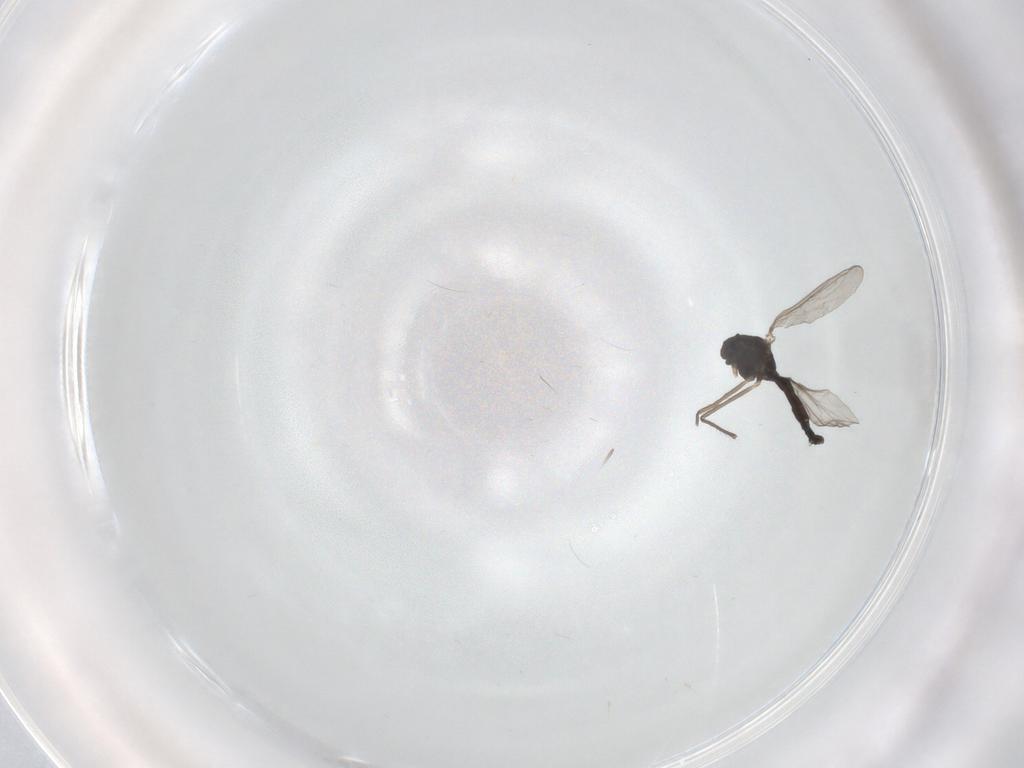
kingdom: Animalia
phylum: Arthropoda
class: Insecta
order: Diptera
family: Chironomidae
